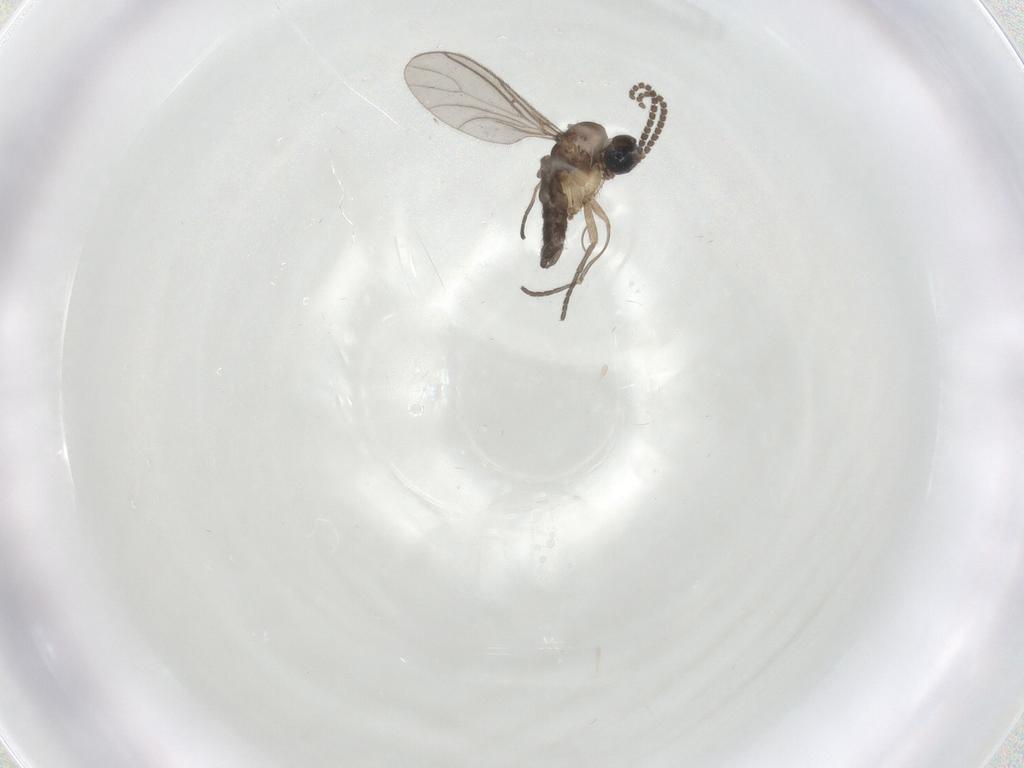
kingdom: Animalia
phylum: Arthropoda
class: Insecta
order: Diptera
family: Sciaridae
